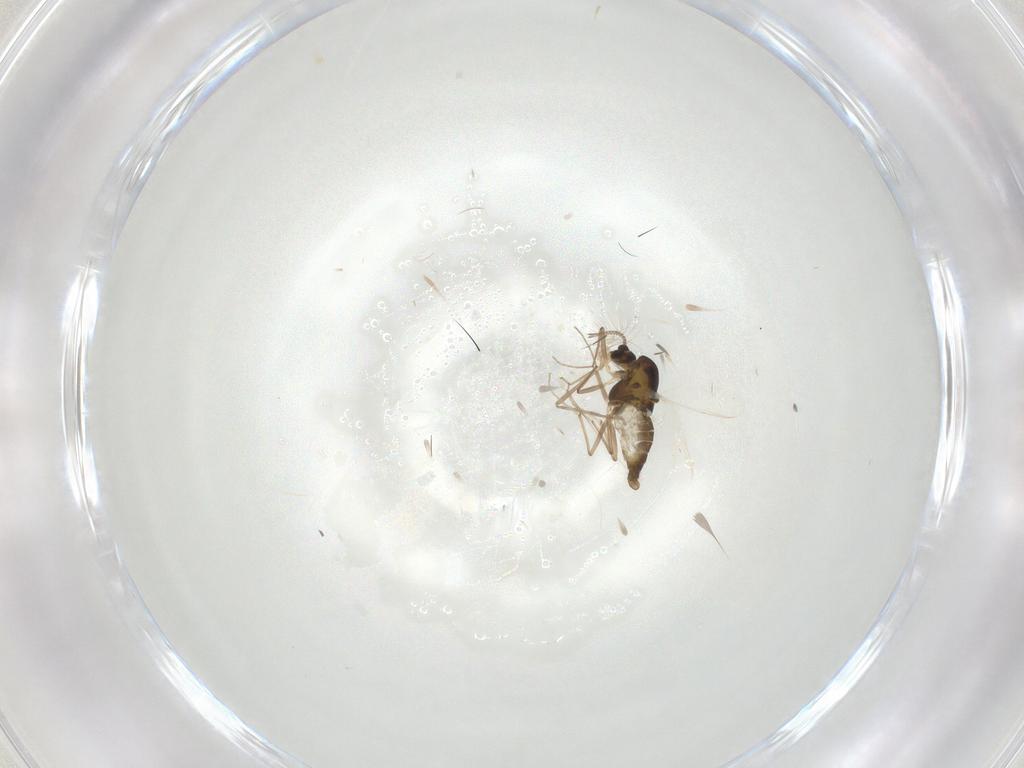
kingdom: Animalia
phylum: Arthropoda
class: Insecta
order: Diptera
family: Chironomidae
